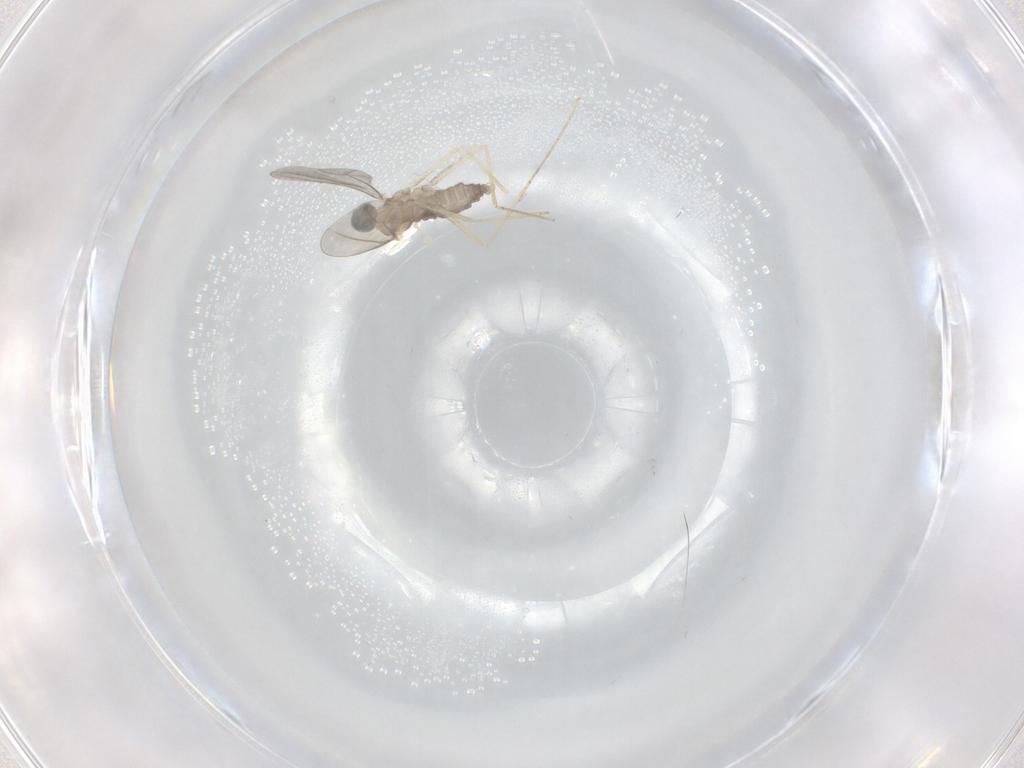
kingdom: Animalia
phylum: Arthropoda
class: Insecta
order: Diptera
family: Cecidomyiidae
